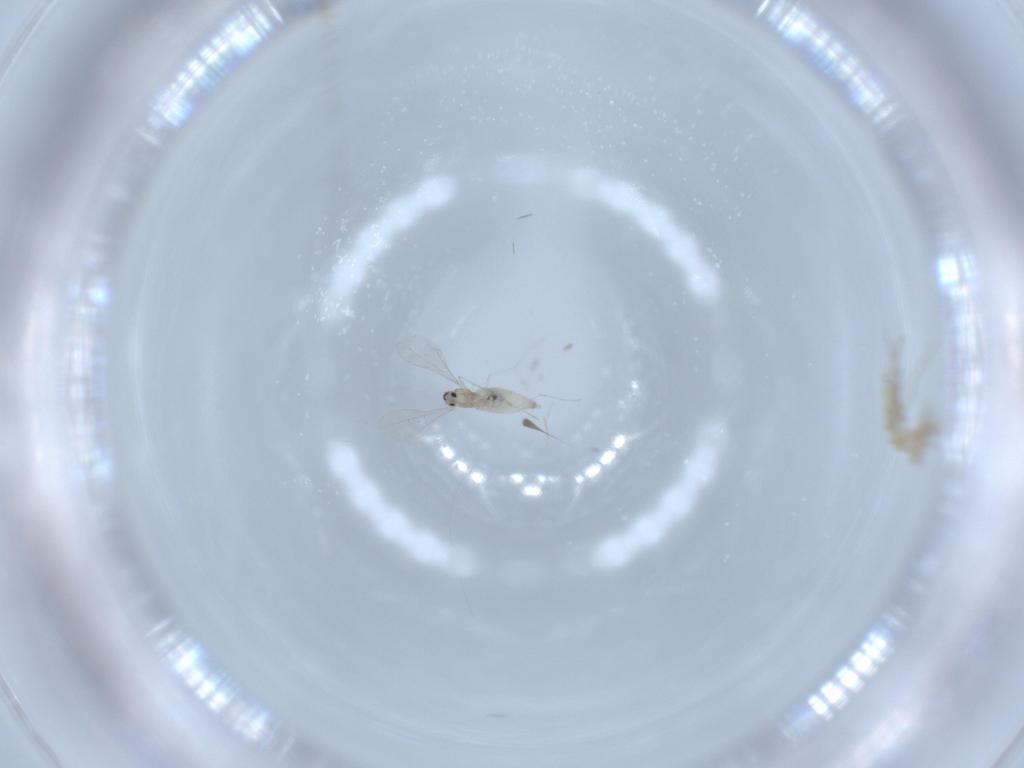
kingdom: Animalia
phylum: Arthropoda
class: Insecta
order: Diptera
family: Cecidomyiidae
